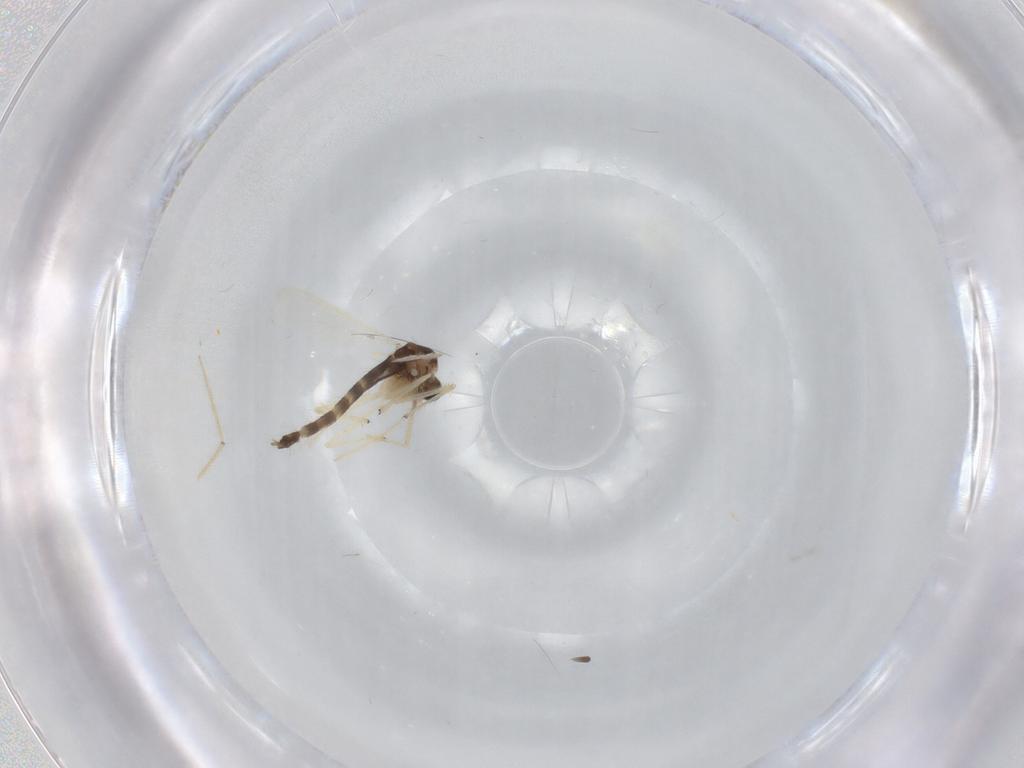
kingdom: Animalia
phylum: Arthropoda
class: Insecta
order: Diptera
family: Chironomidae
